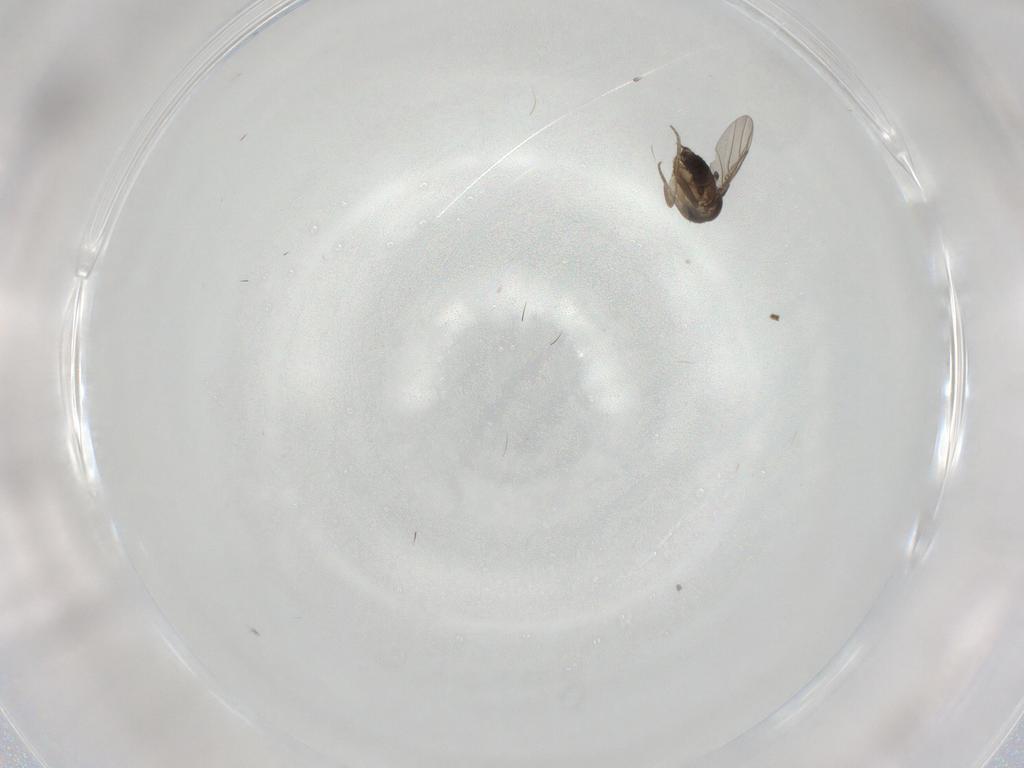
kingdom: Animalia
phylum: Arthropoda
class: Insecta
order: Diptera
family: Phoridae
